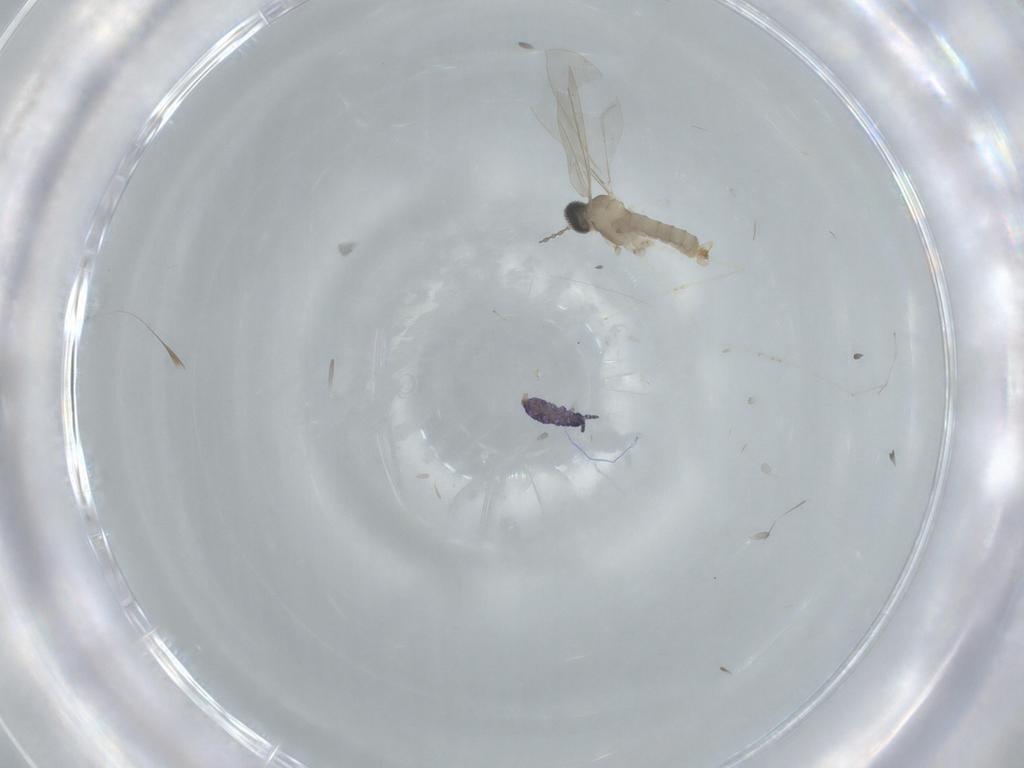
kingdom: Animalia
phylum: Arthropoda
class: Insecta
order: Diptera
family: Cecidomyiidae
